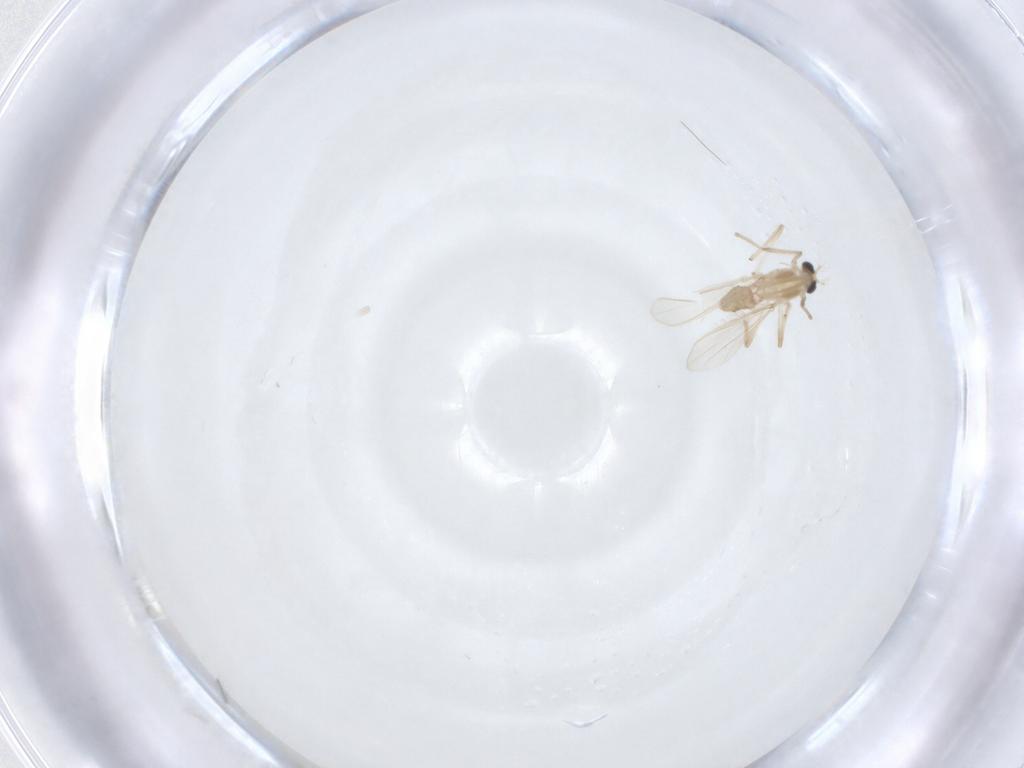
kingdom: Animalia
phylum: Arthropoda
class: Insecta
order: Diptera
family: Chironomidae
